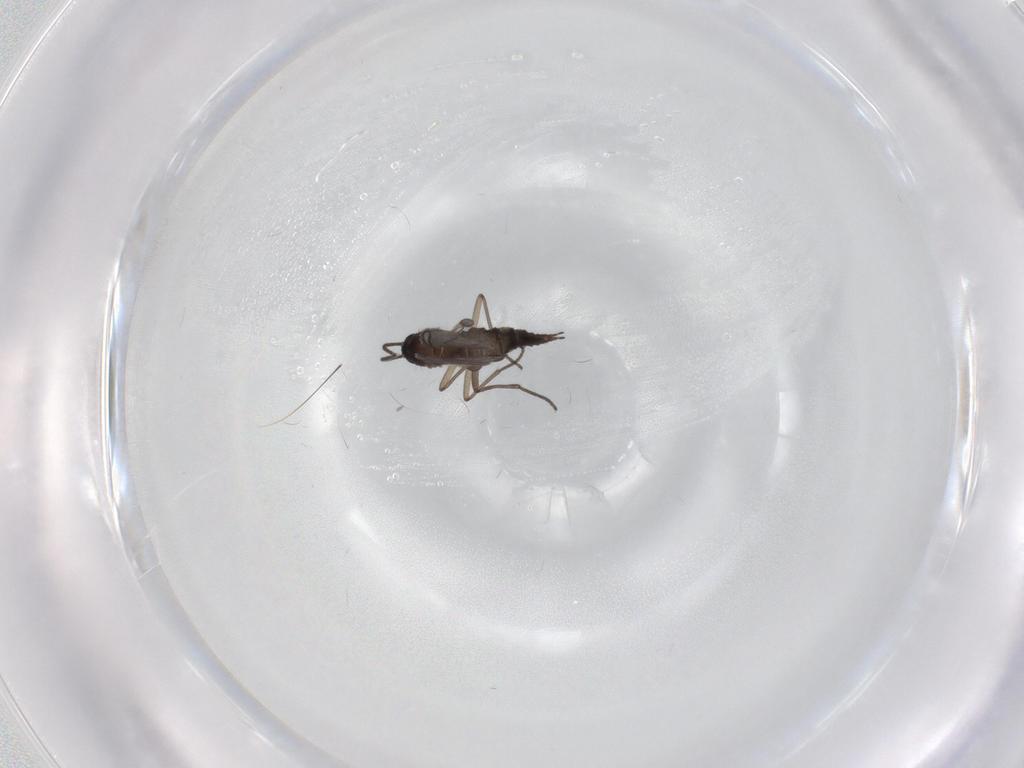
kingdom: Animalia
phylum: Arthropoda
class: Insecta
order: Diptera
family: Sciaridae
